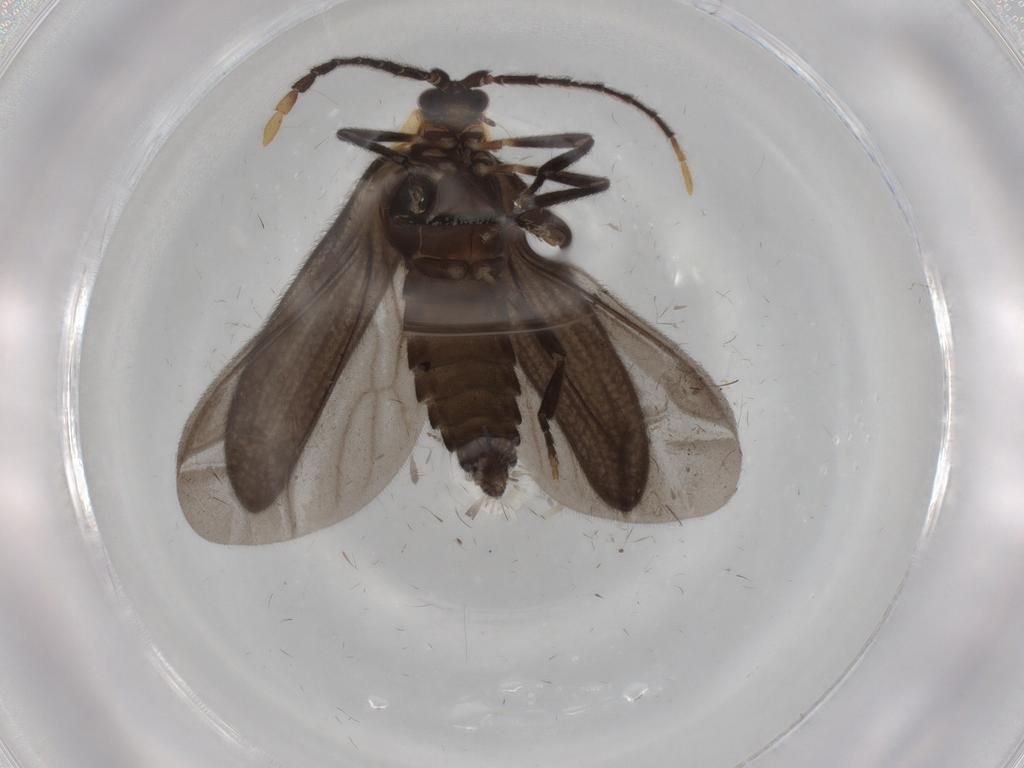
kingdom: Animalia
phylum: Arthropoda
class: Insecta
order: Coleoptera
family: Lycidae
